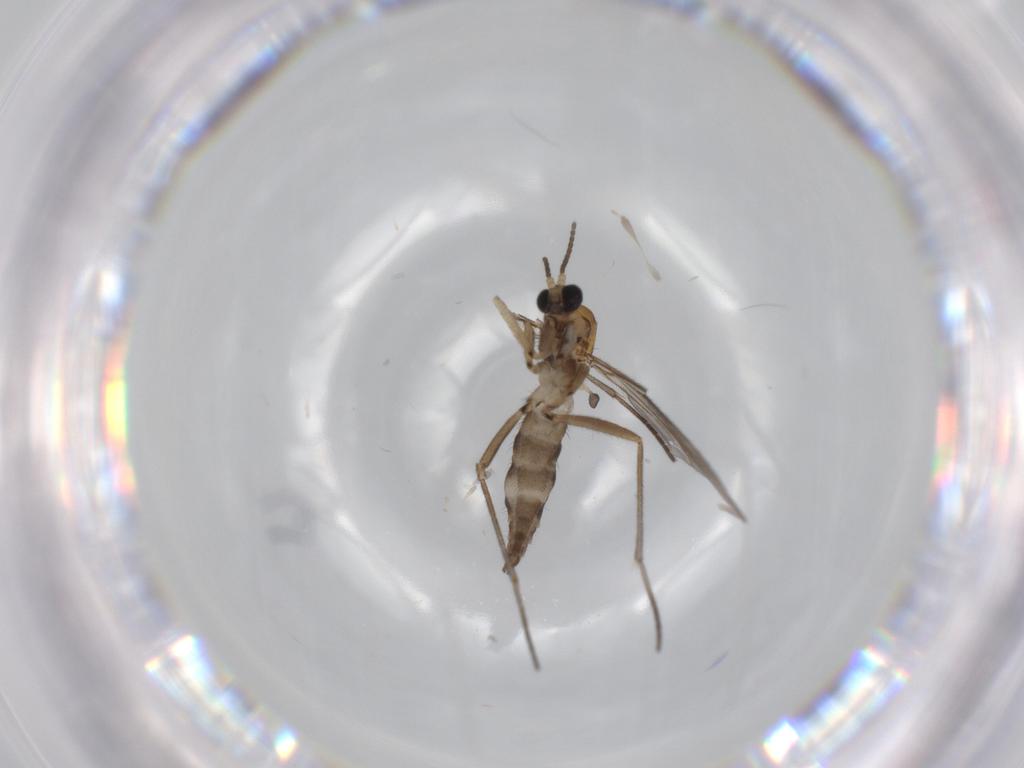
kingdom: Animalia
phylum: Arthropoda
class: Insecta
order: Diptera
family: Sciaridae
